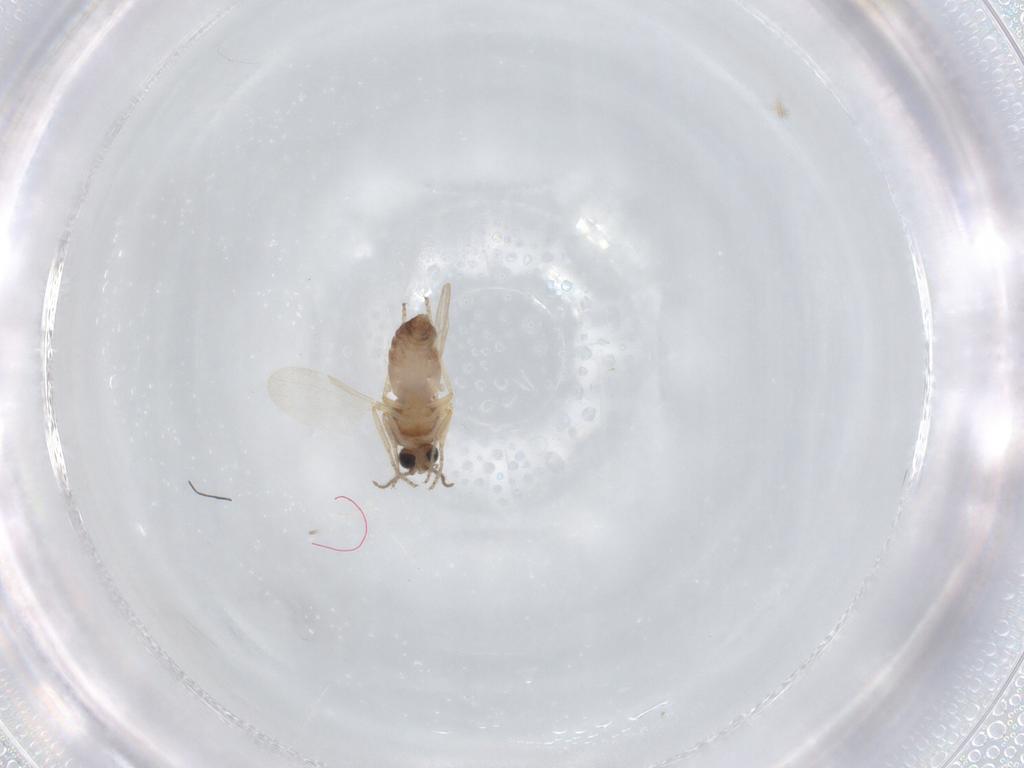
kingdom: Animalia
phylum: Arthropoda
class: Insecta
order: Diptera
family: Ceratopogonidae
